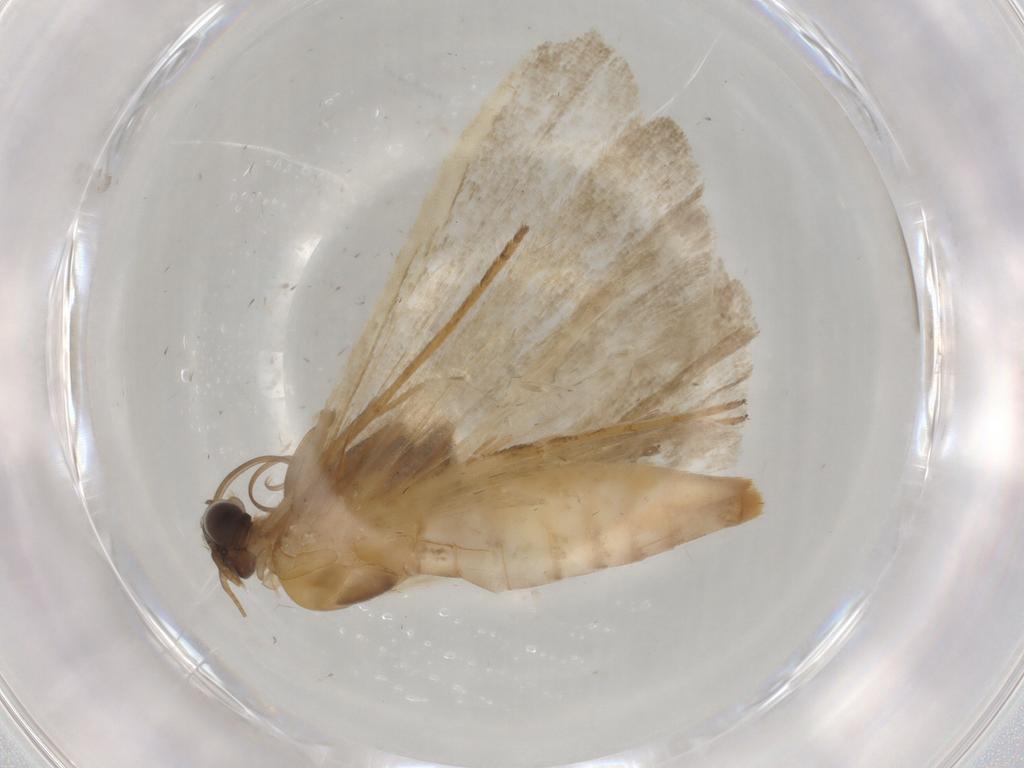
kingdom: Animalia
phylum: Arthropoda
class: Insecta
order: Lepidoptera
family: Noctuidae
